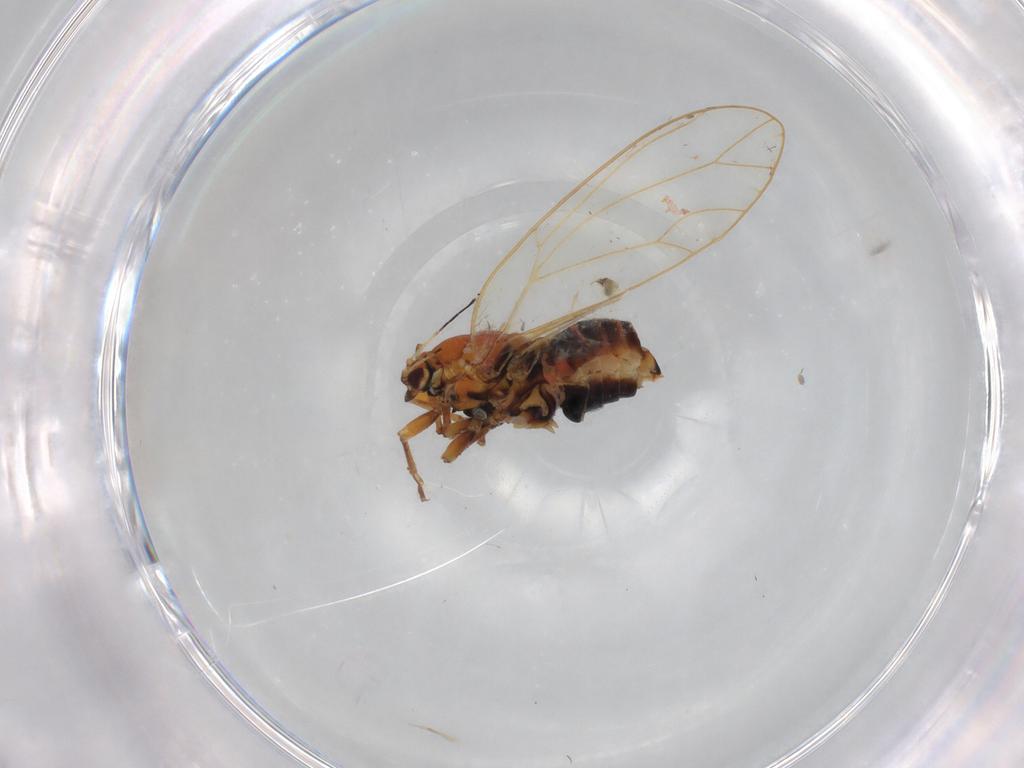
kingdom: Animalia
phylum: Arthropoda
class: Insecta
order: Hemiptera
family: Miridae
